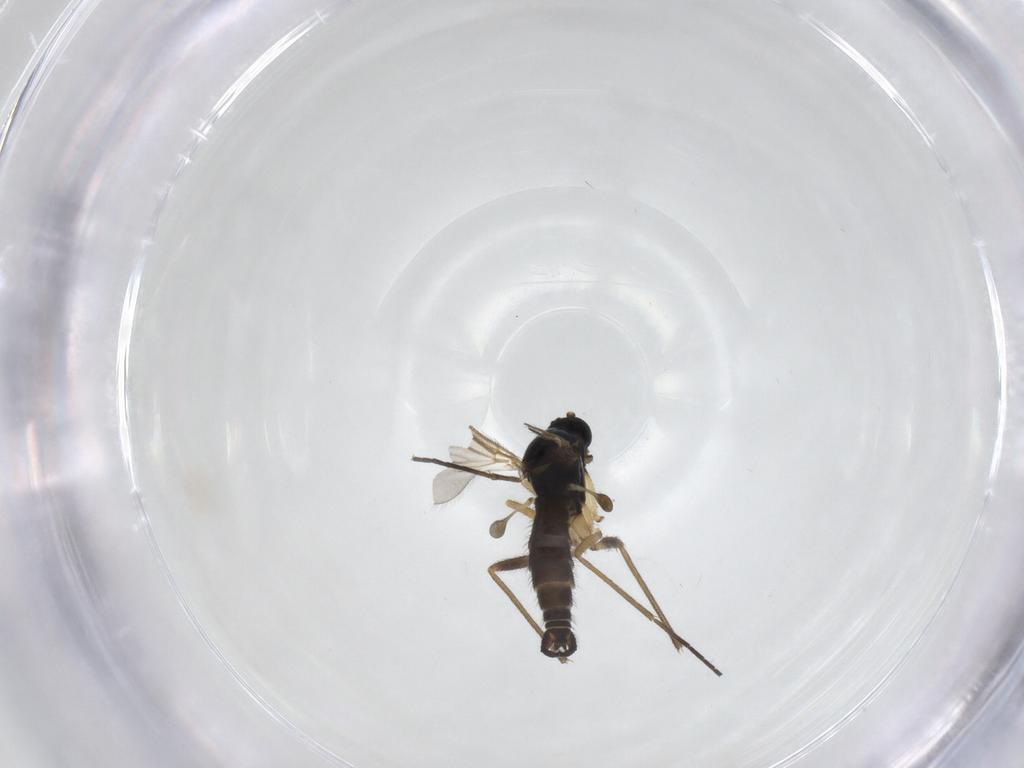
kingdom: Animalia
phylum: Arthropoda
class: Insecta
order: Diptera
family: Sciaridae
